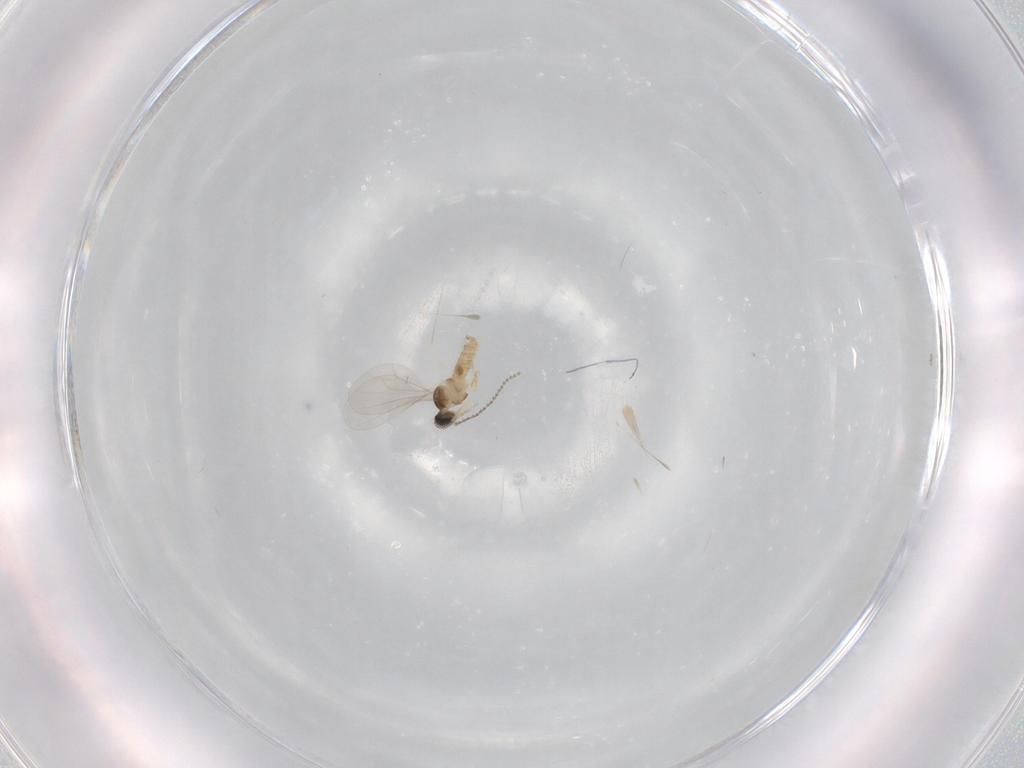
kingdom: Animalia
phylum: Arthropoda
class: Insecta
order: Diptera
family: Cecidomyiidae
